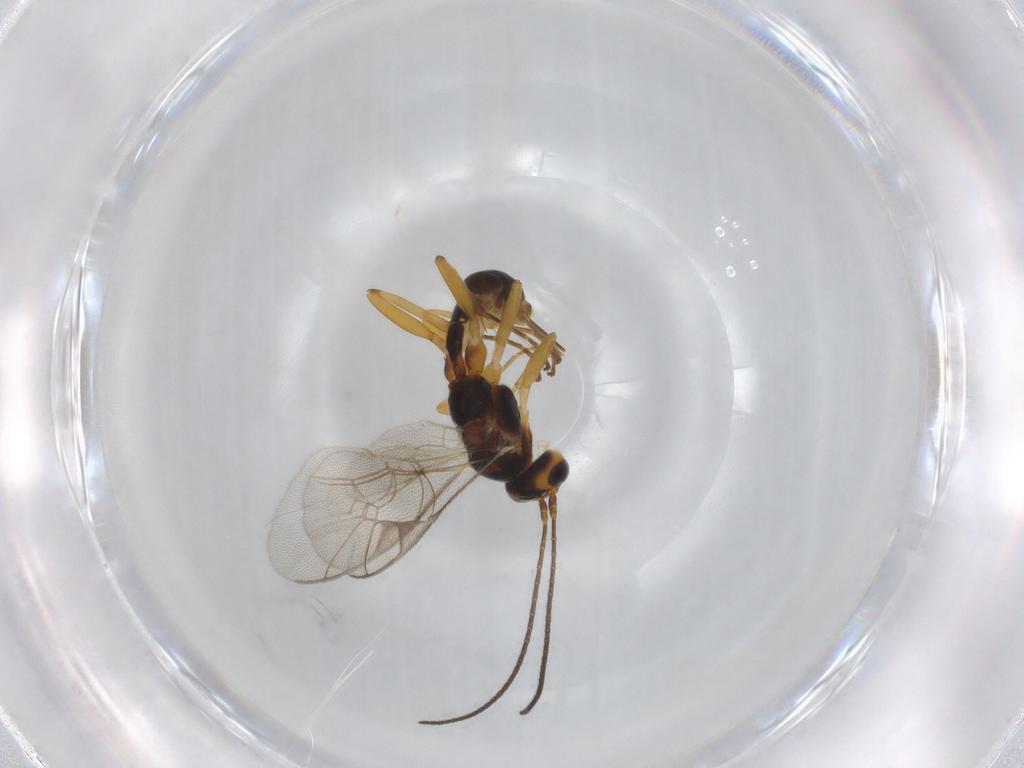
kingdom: Animalia
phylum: Arthropoda
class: Insecta
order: Hymenoptera
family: Ichneumonidae
